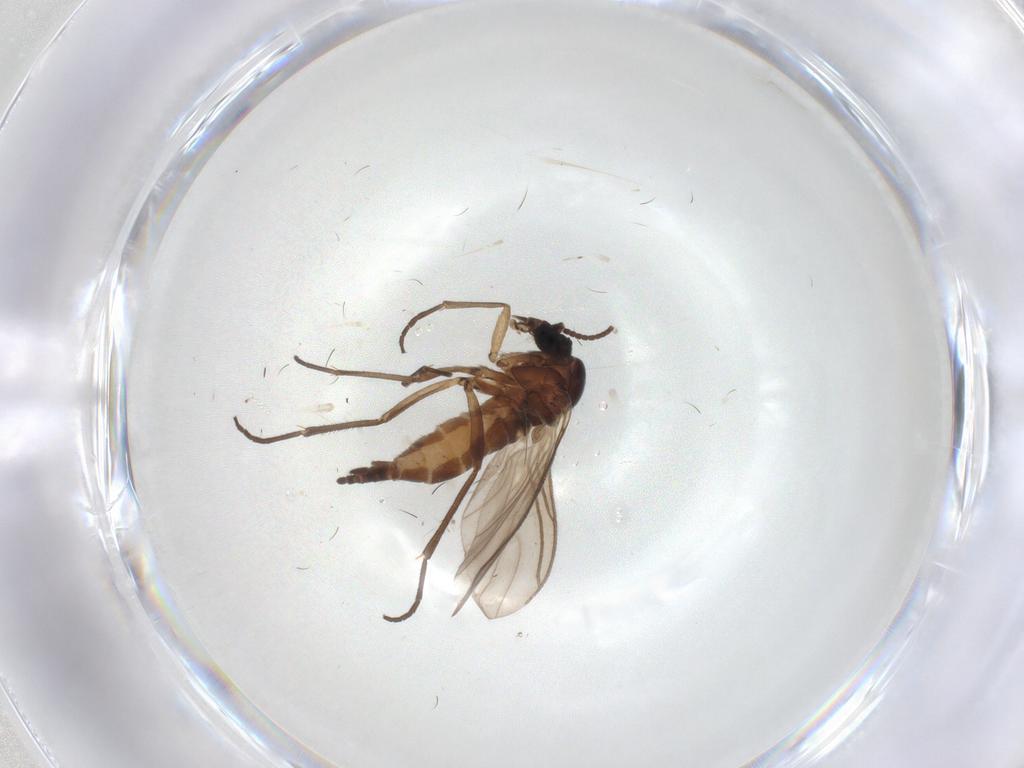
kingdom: Animalia
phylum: Arthropoda
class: Insecta
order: Diptera
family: Sciaridae
